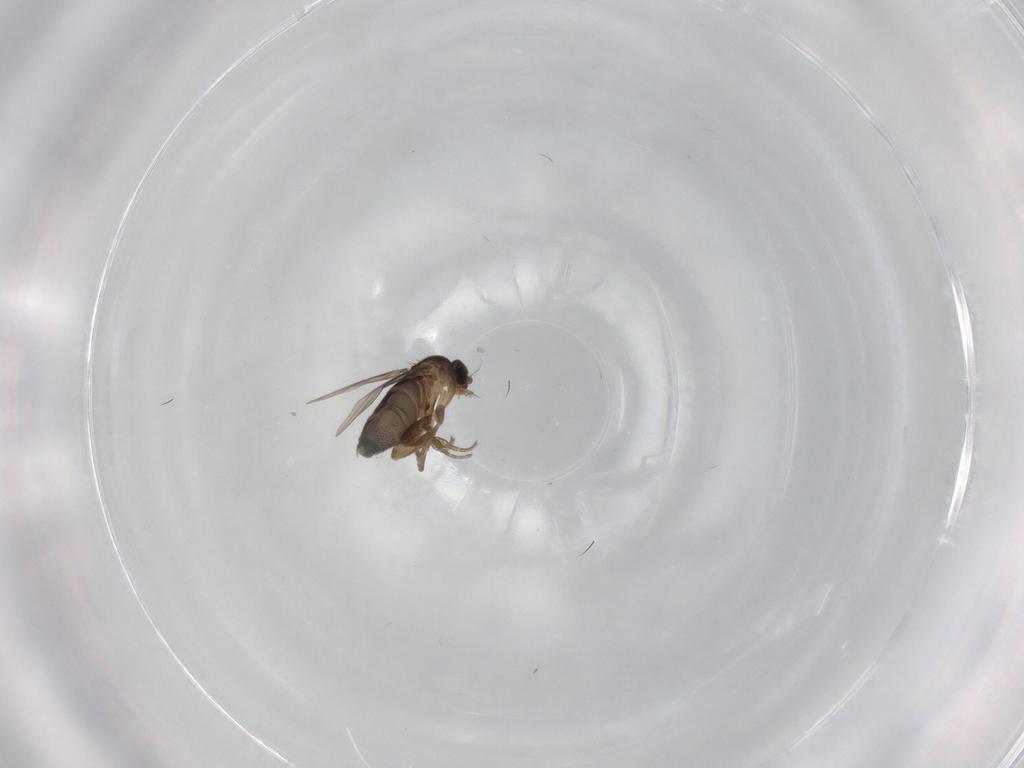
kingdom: Animalia
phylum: Arthropoda
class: Insecta
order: Diptera
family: Phoridae
